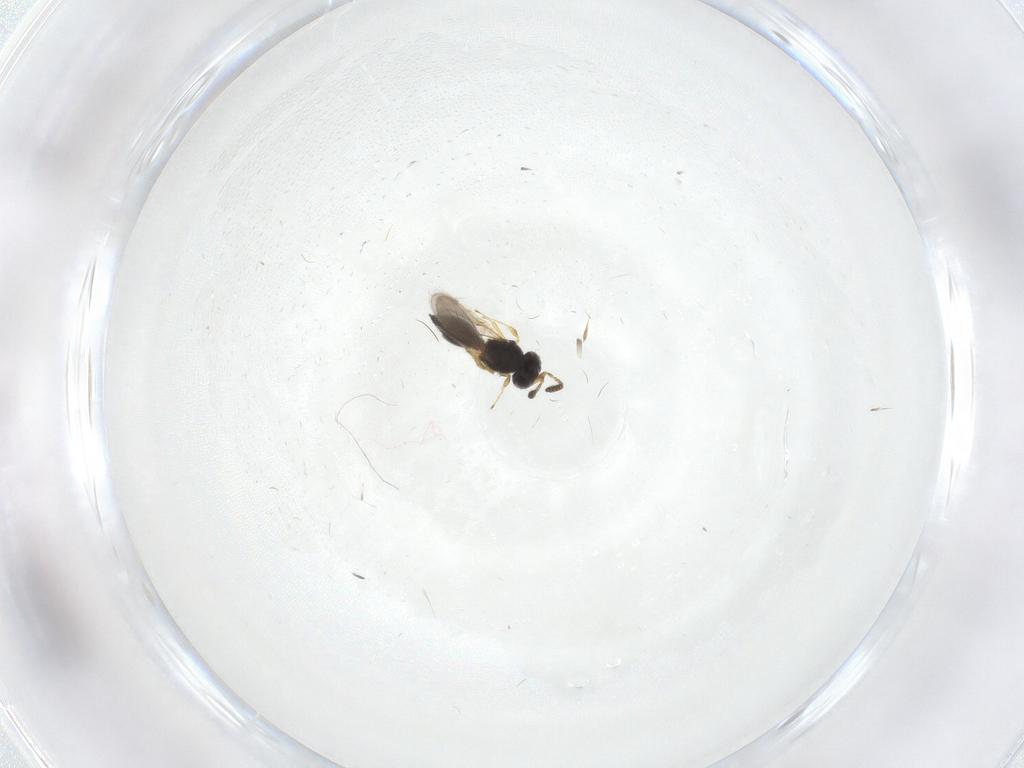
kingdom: Animalia
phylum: Arthropoda
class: Insecta
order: Hymenoptera
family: Scelionidae
